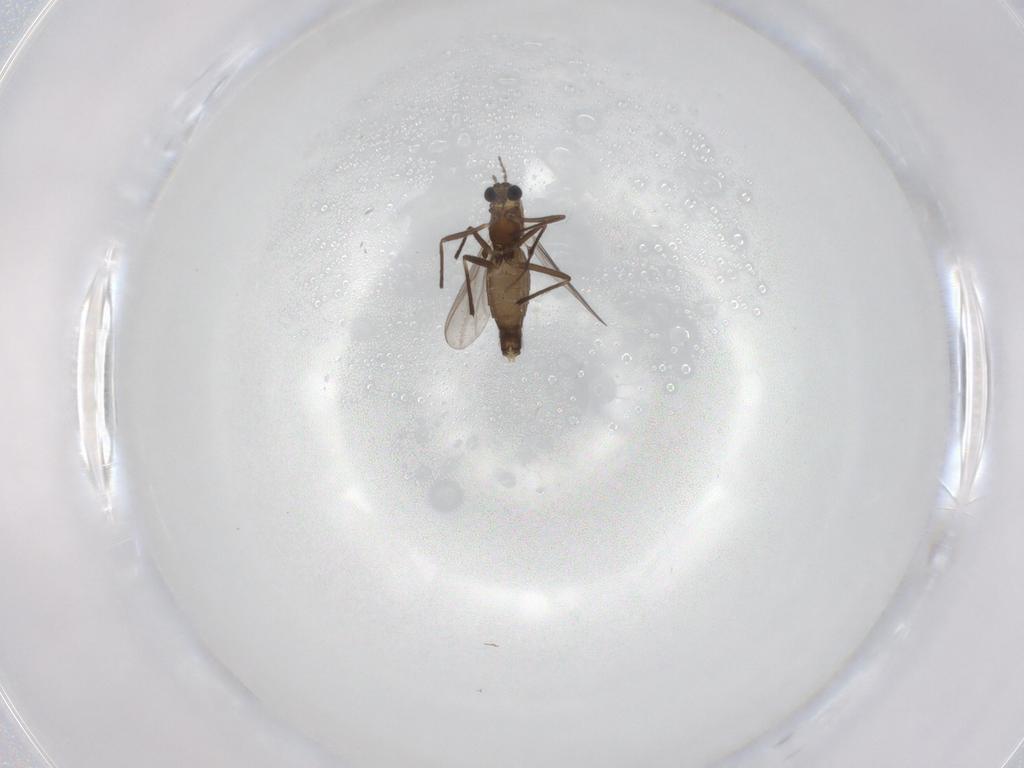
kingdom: Animalia
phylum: Arthropoda
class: Insecta
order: Diptera
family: Chironomidae
